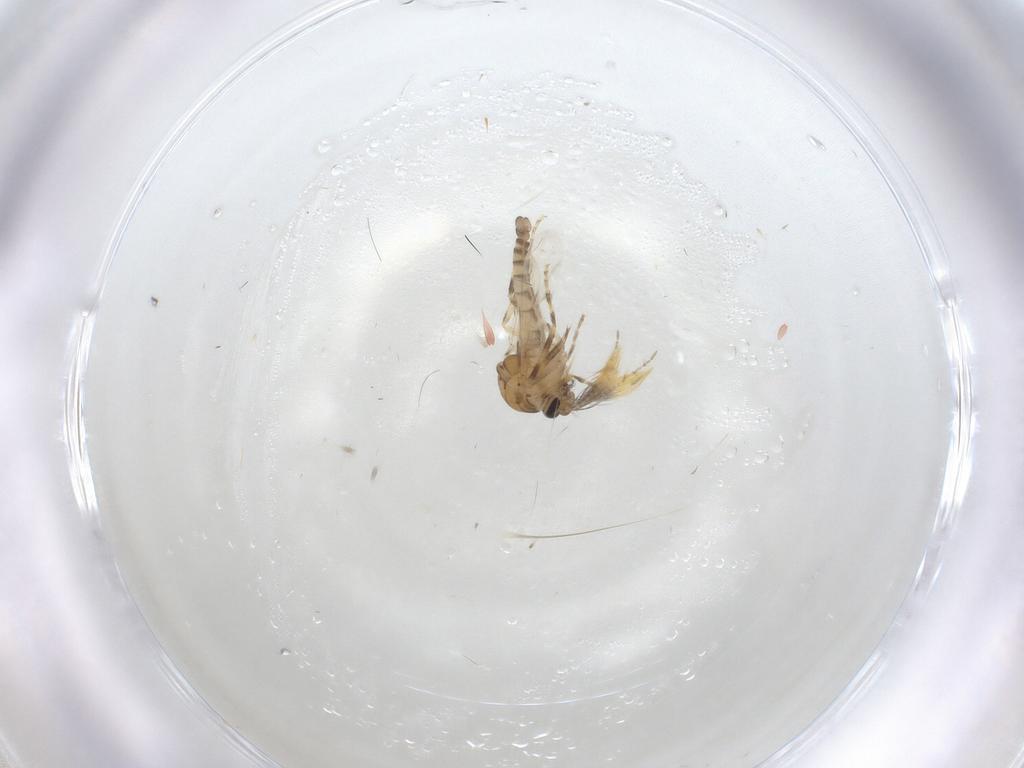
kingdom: Animalia
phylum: Arthropoda
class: Insecta
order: Diptera
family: Ceratopogonidae
